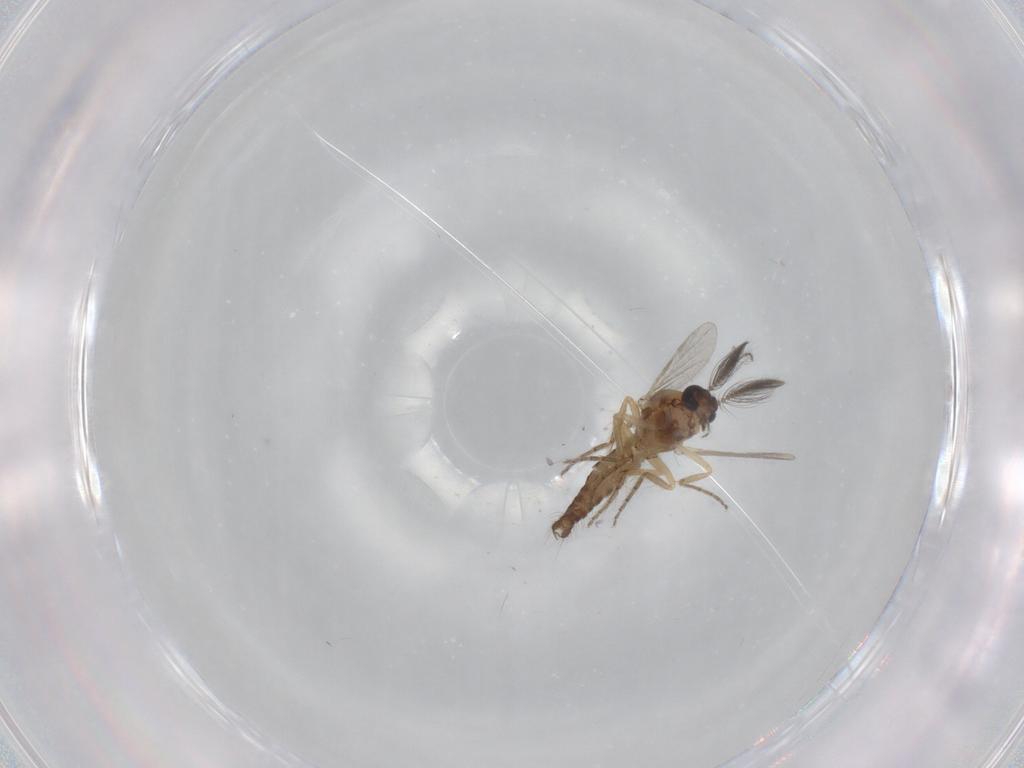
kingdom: Animalia
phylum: Arthropoda
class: Insecta
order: Diptera
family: Ceratopogonidae
